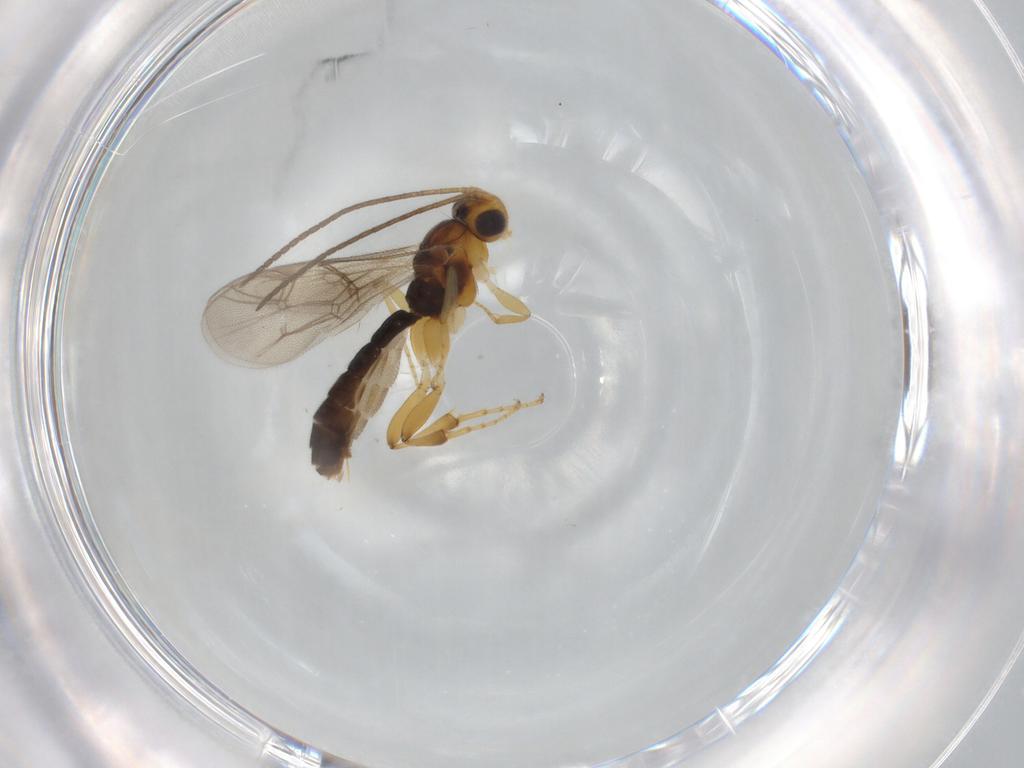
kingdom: Animalia
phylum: Arthropoda
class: Insecta
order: Hymenoptera
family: Ichneumonidae
